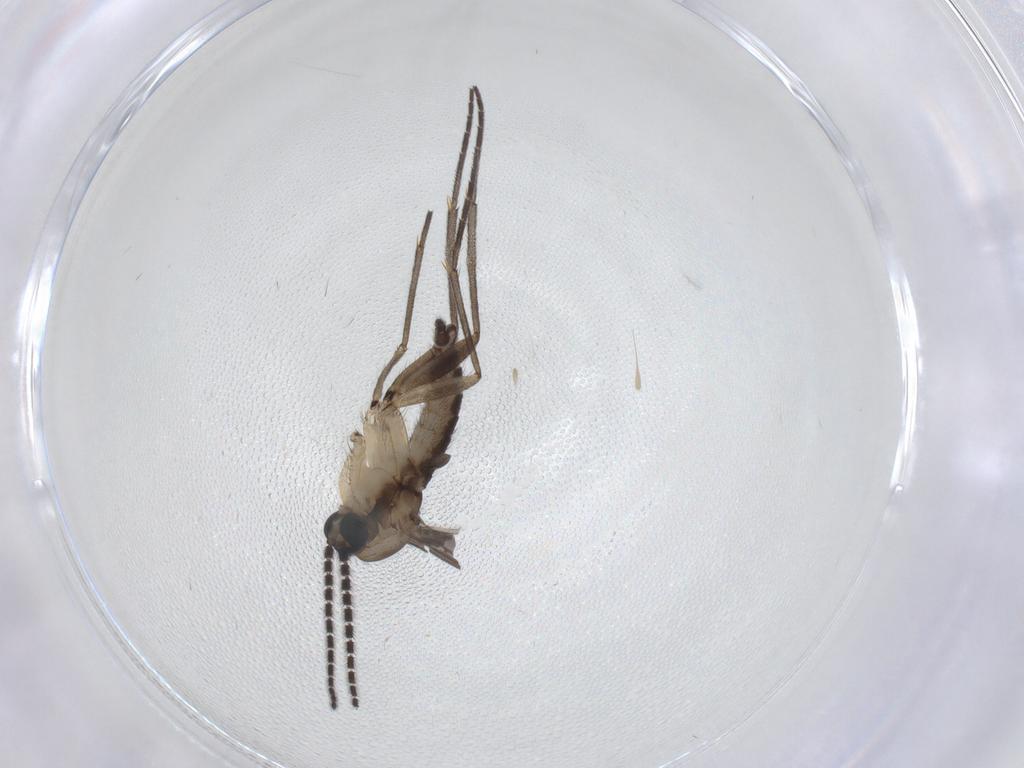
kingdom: Animalia
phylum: Arthropoda
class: Insecta
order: Diptera
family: Sciaridae
